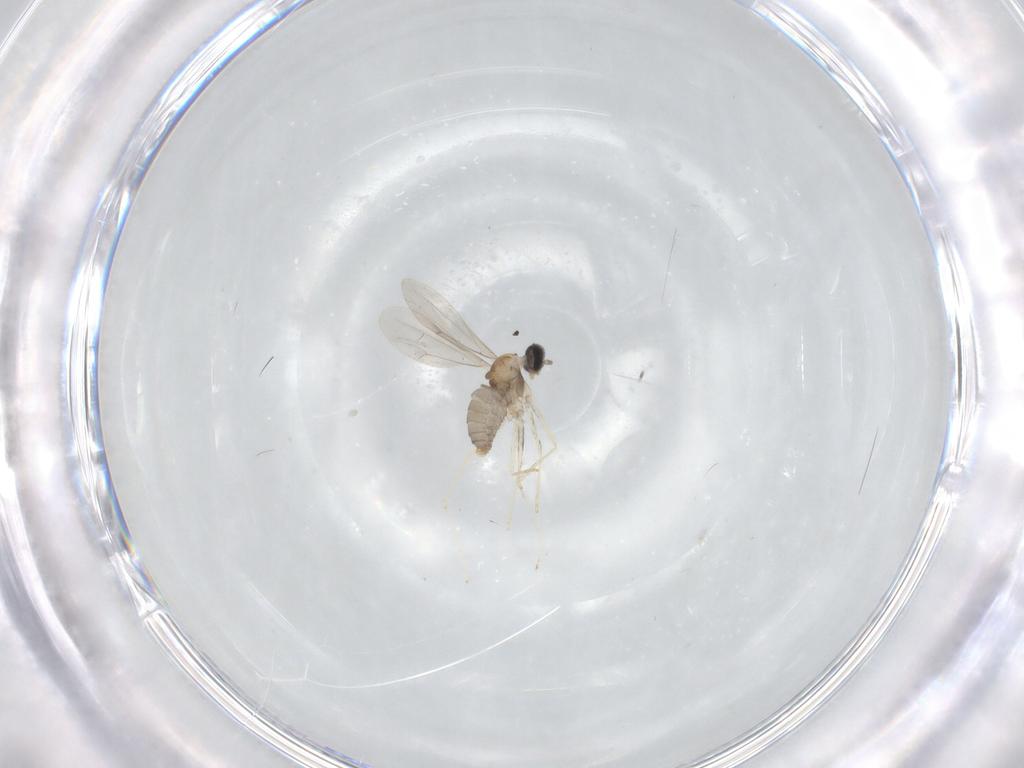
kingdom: Animalia
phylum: Arthropoda
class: Insecta
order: Diptera
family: Cecidomyiidae
